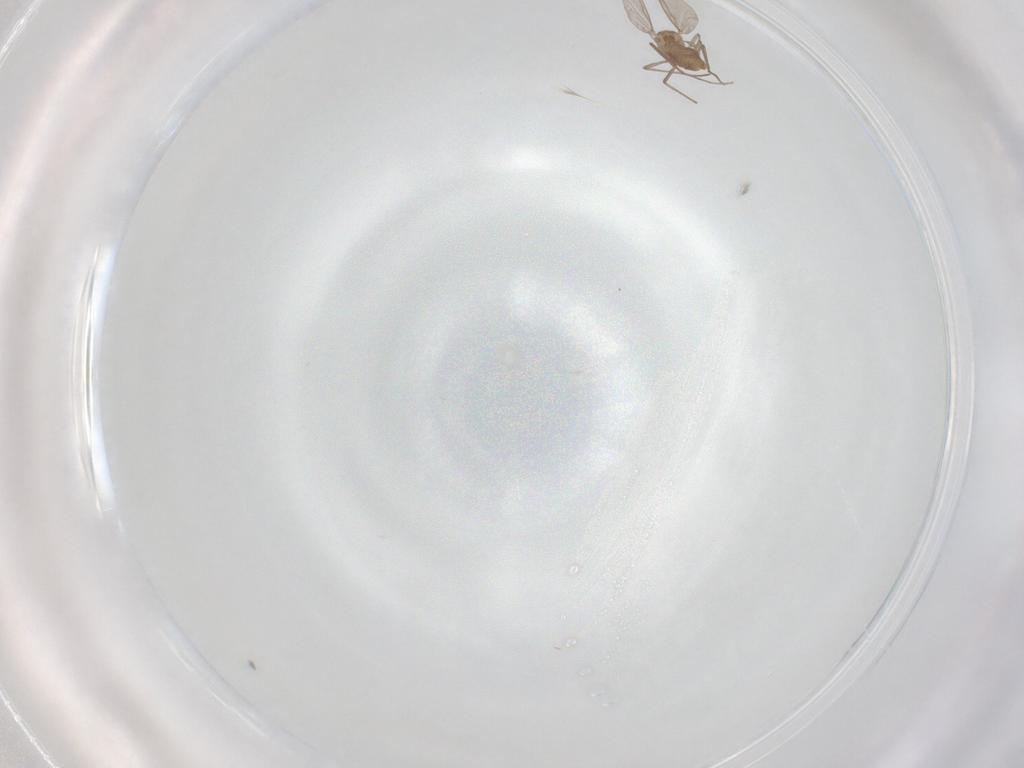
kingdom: Animalia
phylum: Arthropoda
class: Insecta
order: Diptera
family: Chironomidae
